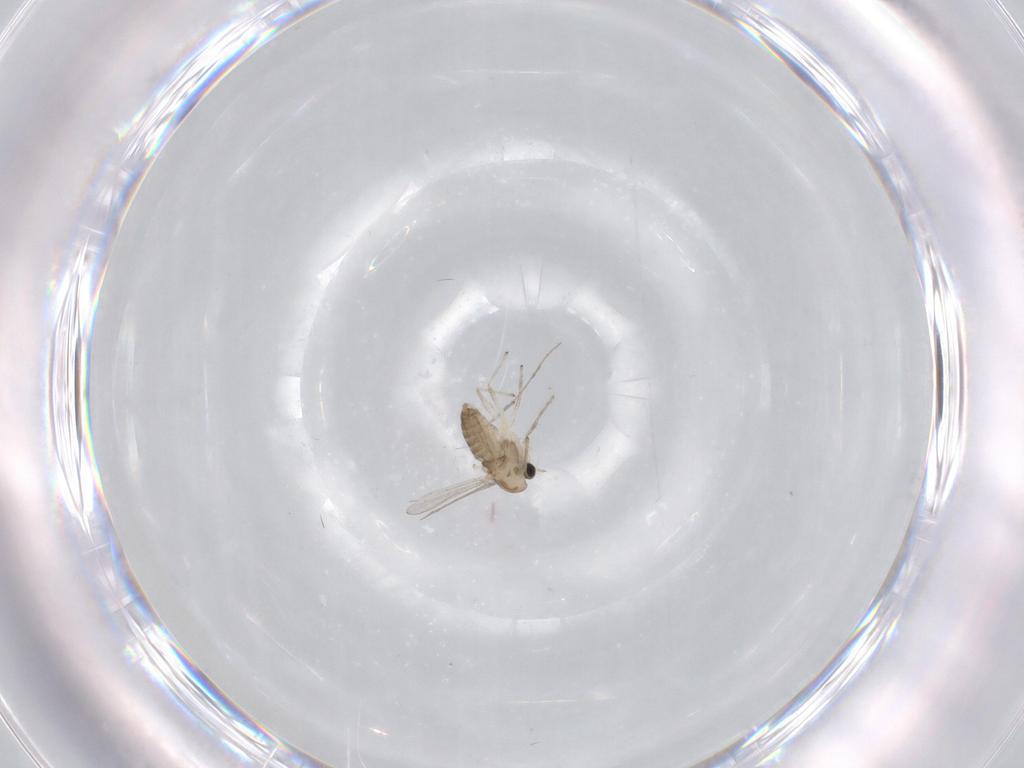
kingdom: Animalia
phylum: Arthropoda
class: Insecta
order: Diptera
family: Chironomidae
